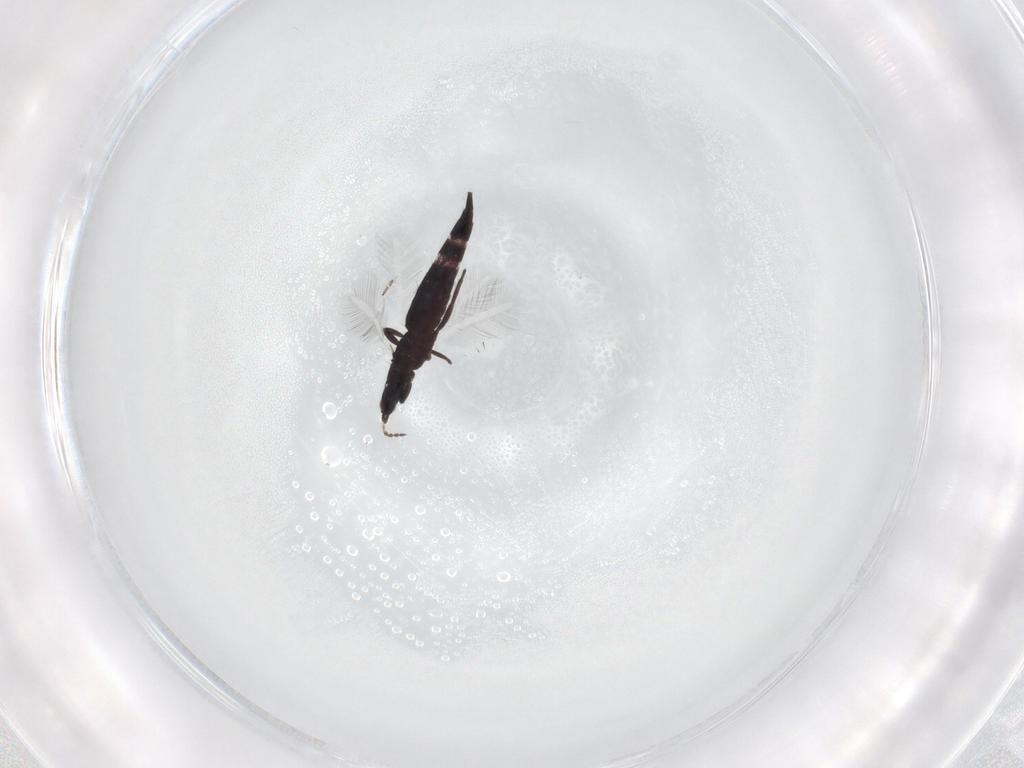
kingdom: Animalia
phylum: Arthropoda
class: Insecta
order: Thysanoptera
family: Phlaeothripidae
